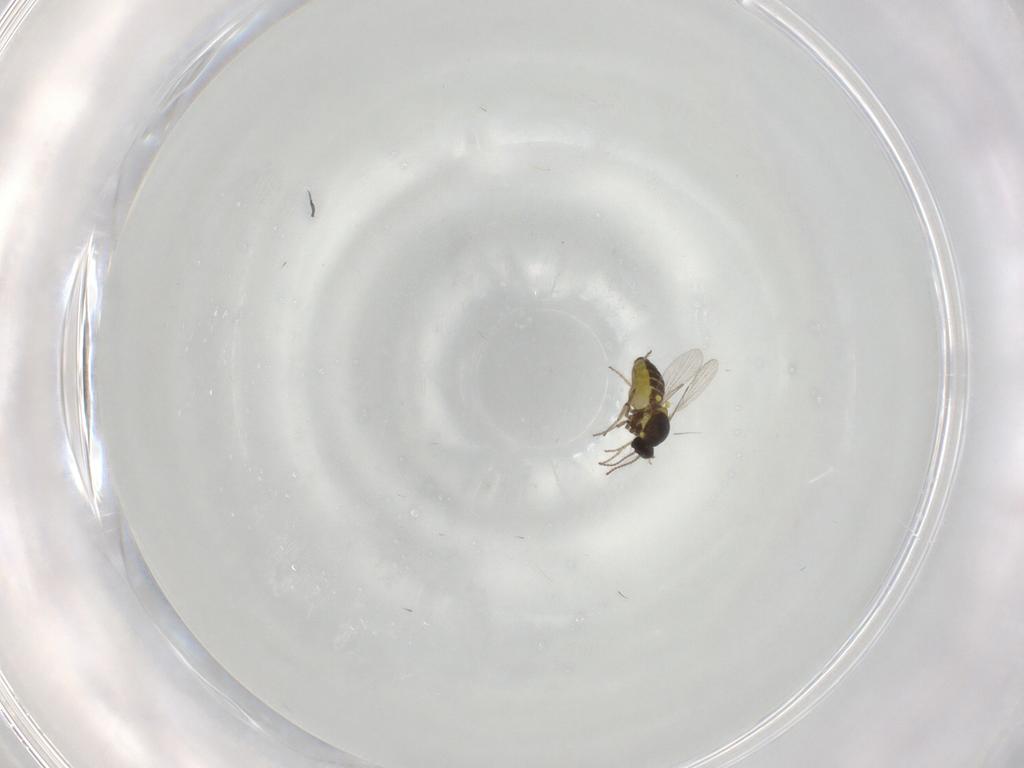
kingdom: Animalia
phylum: Arthropoda
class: Insecta
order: Diptera
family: Ceratopogonidae
